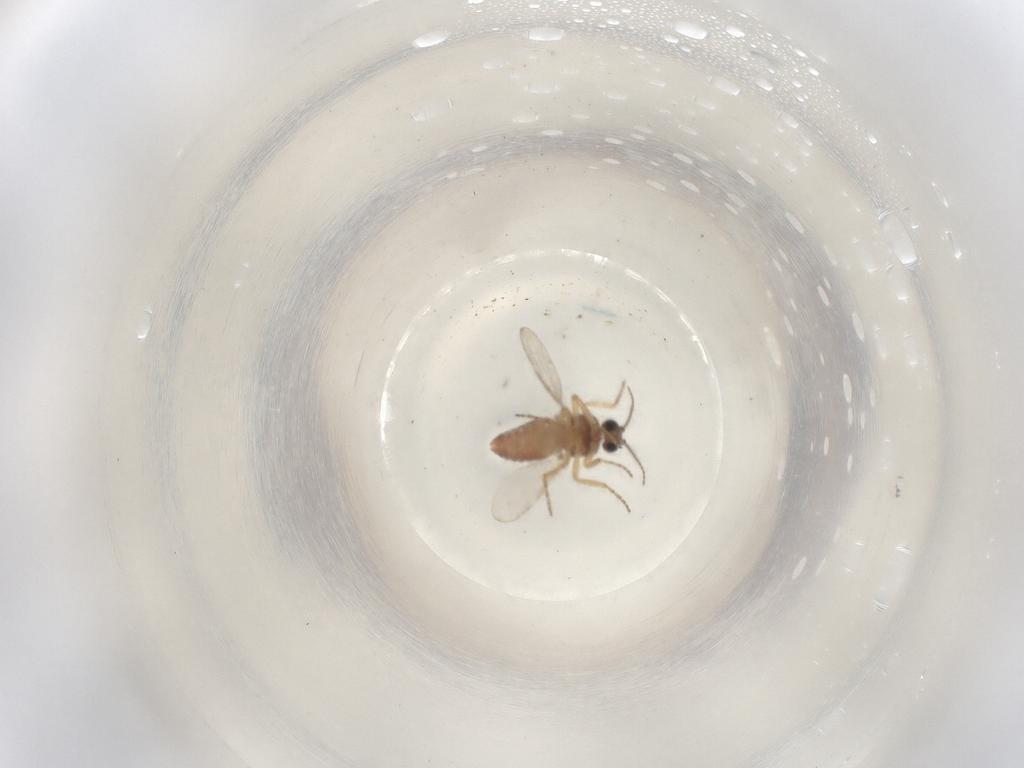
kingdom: Animalia
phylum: Arthropoda
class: Insecta
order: Diptera
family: Ceratopogonidae
